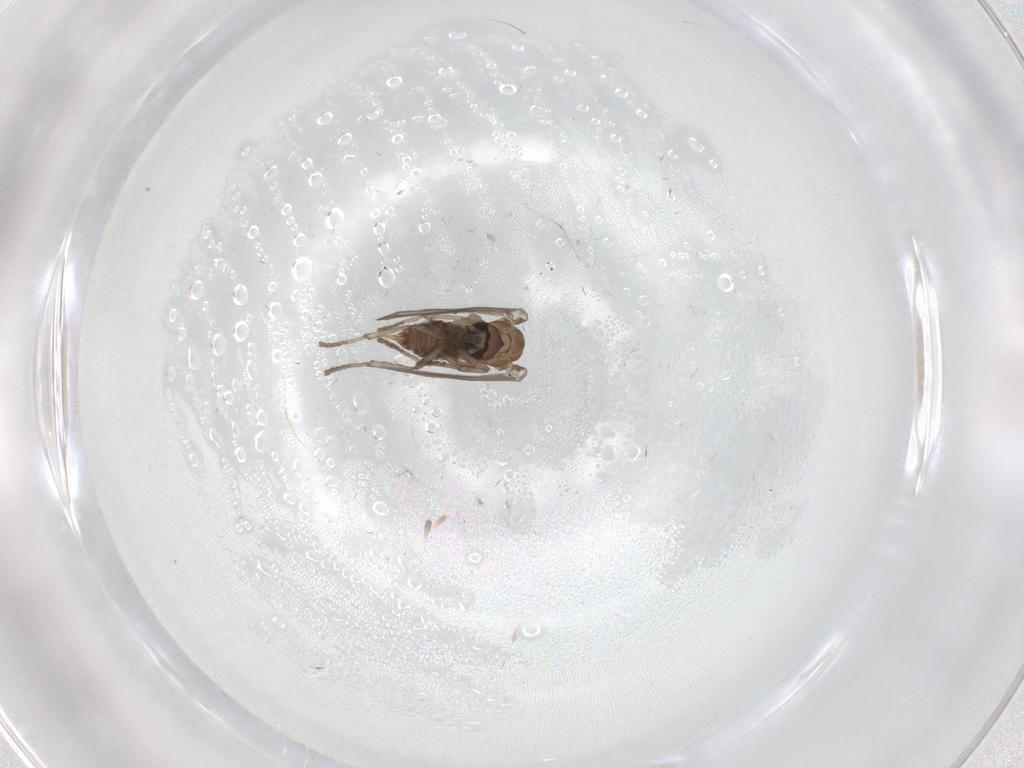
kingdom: Animalia
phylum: Arthropoda
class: Insecta
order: Diptera
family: Psychodidae
